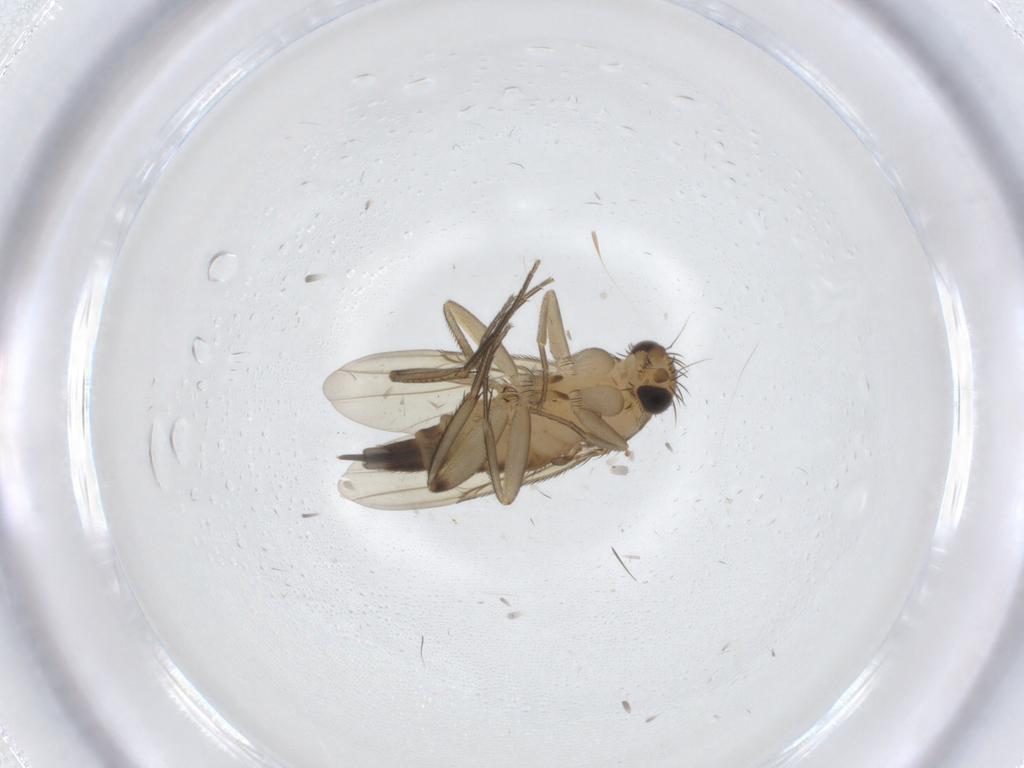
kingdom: Animalia
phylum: Arthropoda
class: Insecta
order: Diptera
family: Phoridae
